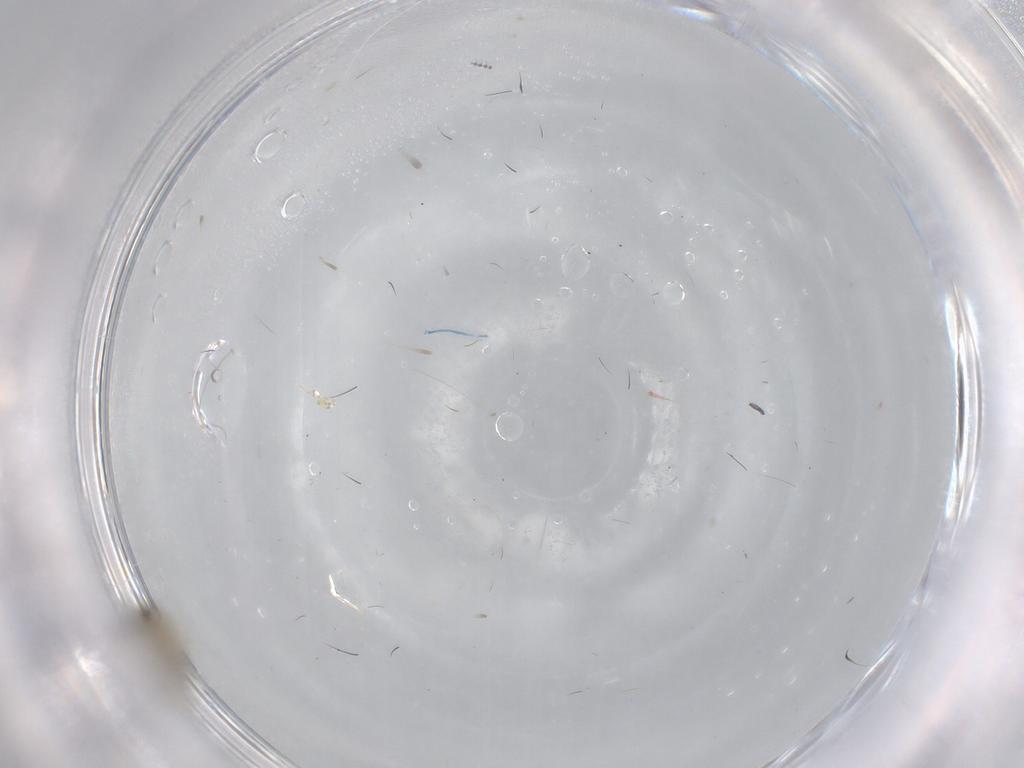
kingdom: Animalia
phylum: Arthropoda
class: Insecta
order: Diptera
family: Cecidomyiidae
